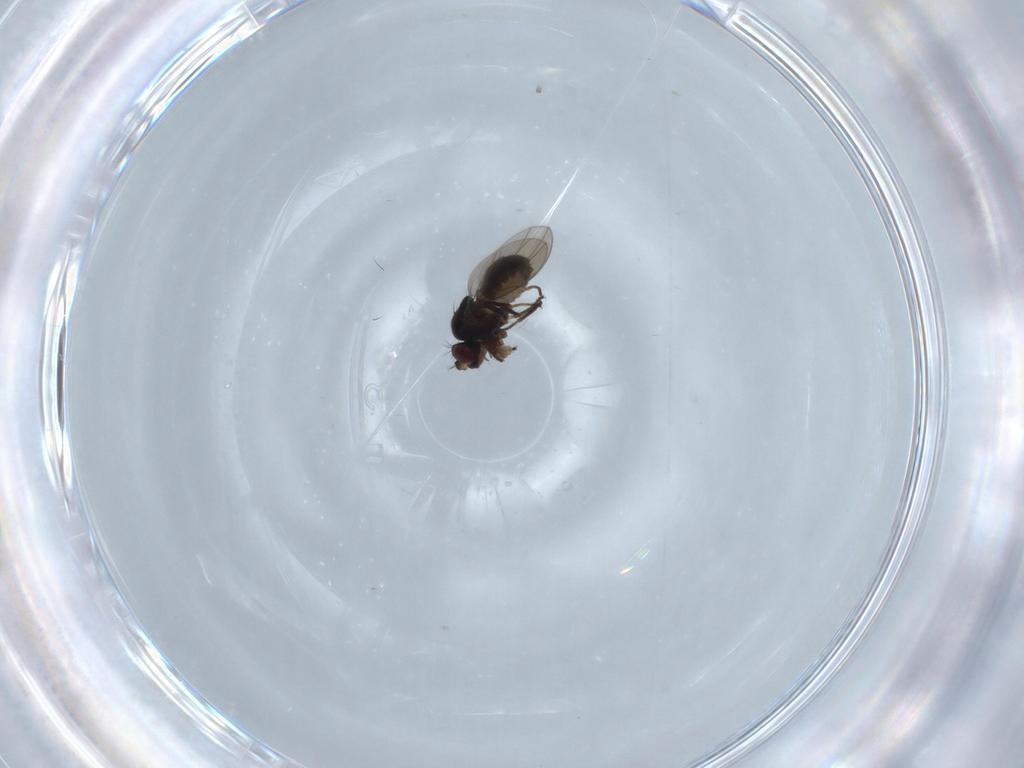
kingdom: Animalia
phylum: Arthropoda
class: Insecta
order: Diptera
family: Ephydridae
